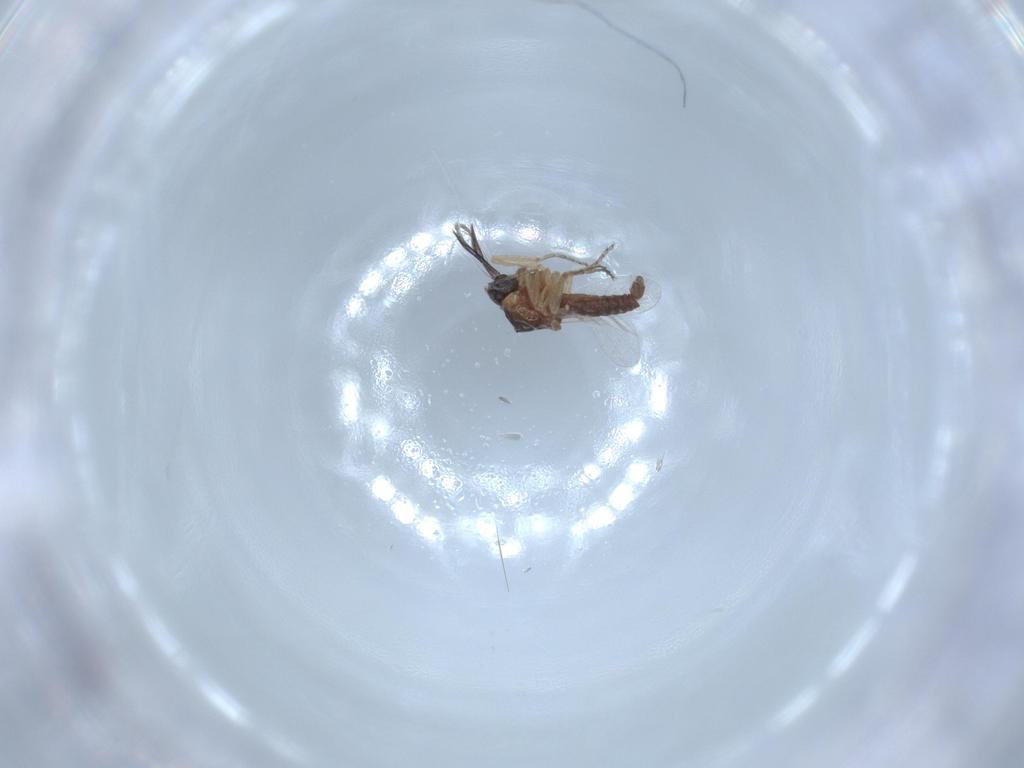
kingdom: Animalia
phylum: Arthropoda
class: Insecta
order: Diptera
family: Ceratopogonidae
